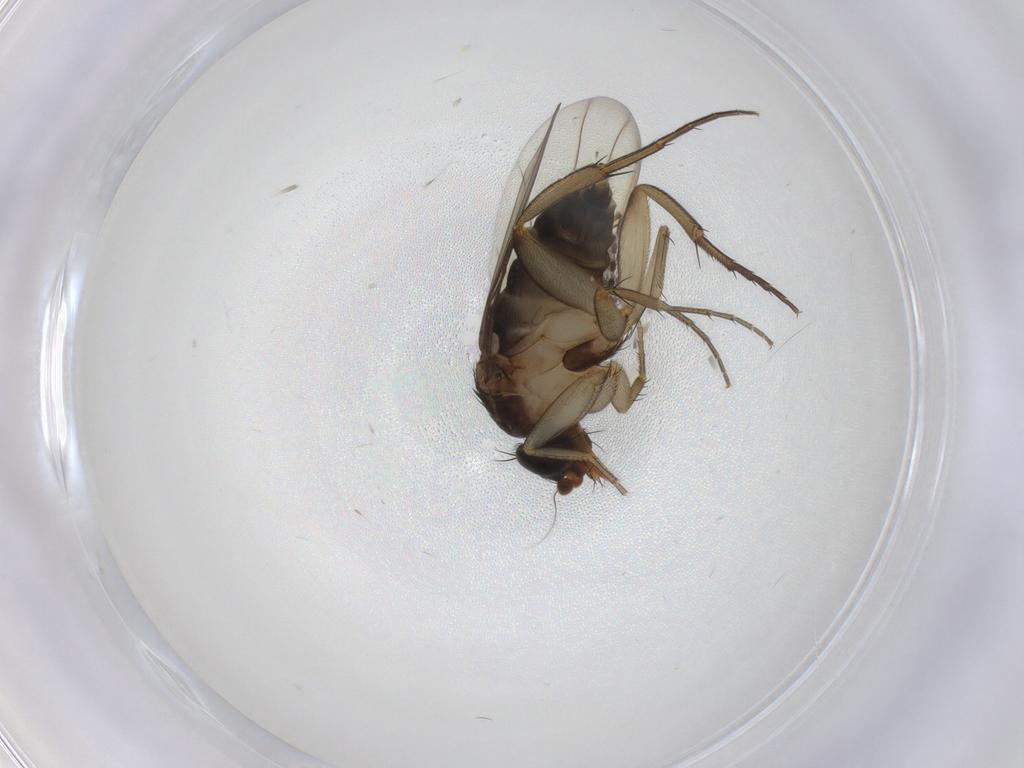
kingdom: Animalia
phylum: Arthropoda
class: Insecta
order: Diptera
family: Phoridae
